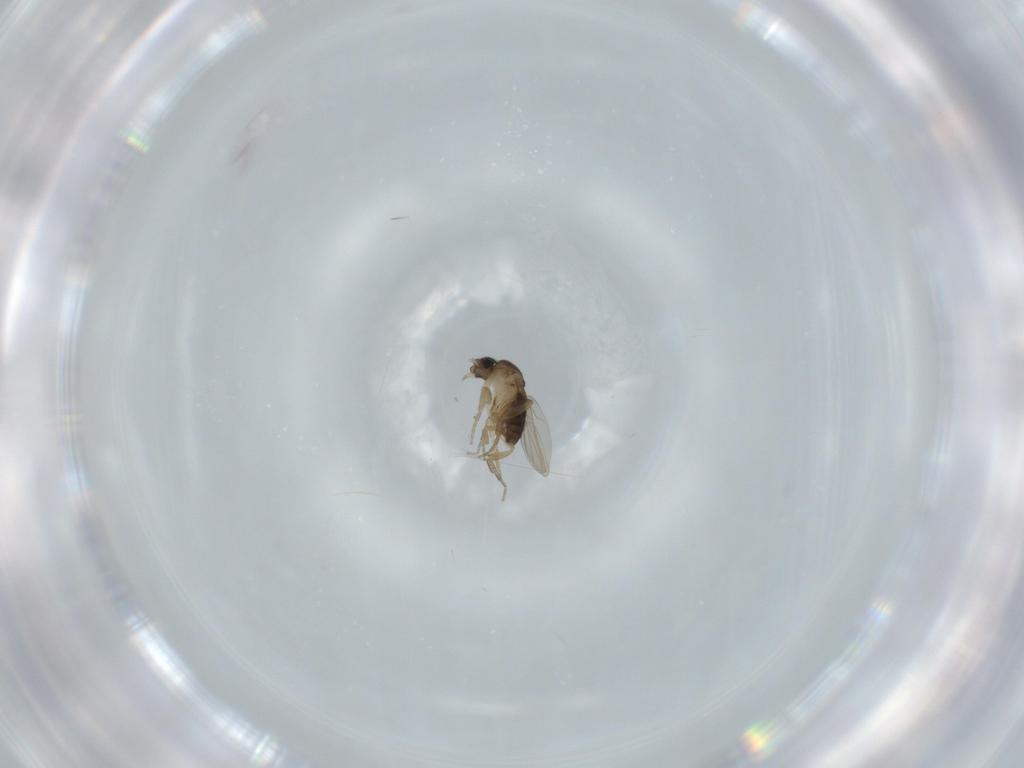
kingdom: Animalia
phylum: Arthropoda
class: Insecta
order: Diptera
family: Phoridae
